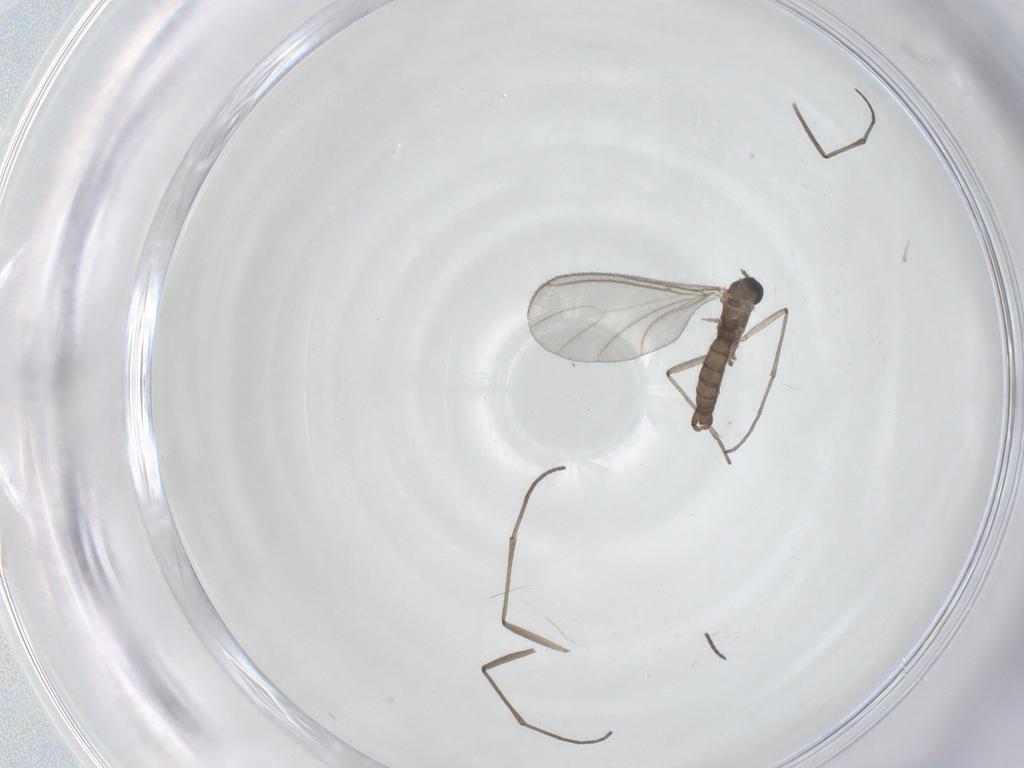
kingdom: Animalia
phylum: Arthropoda
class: Insecta
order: Diptera
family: Sciaridae
